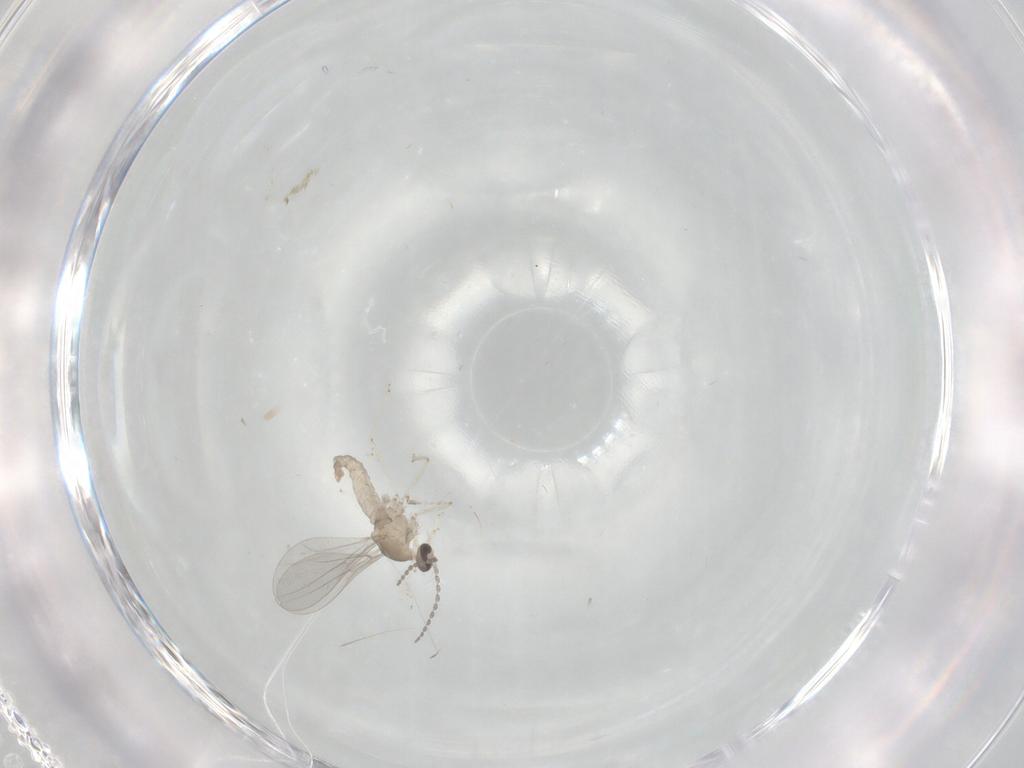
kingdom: Animalia
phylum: Arthropoda
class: Insecta
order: Diptera
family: Cecidomyiidae
